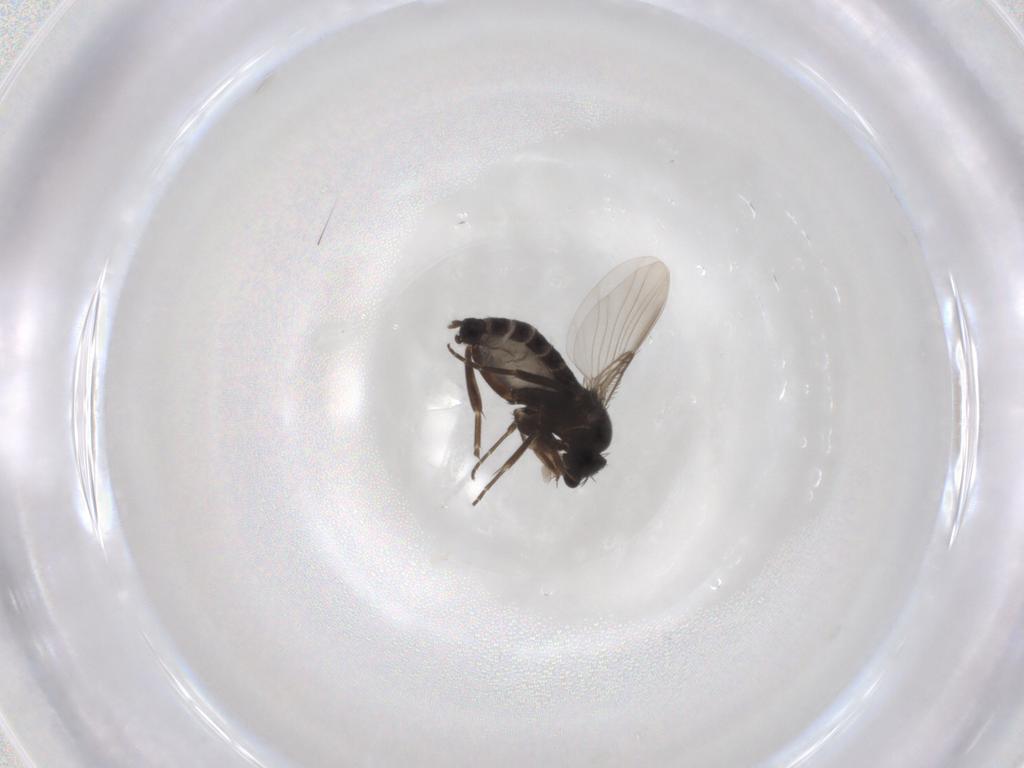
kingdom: Animalia
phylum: Arthropoda
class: Insecta
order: Diptera
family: Phoridae
